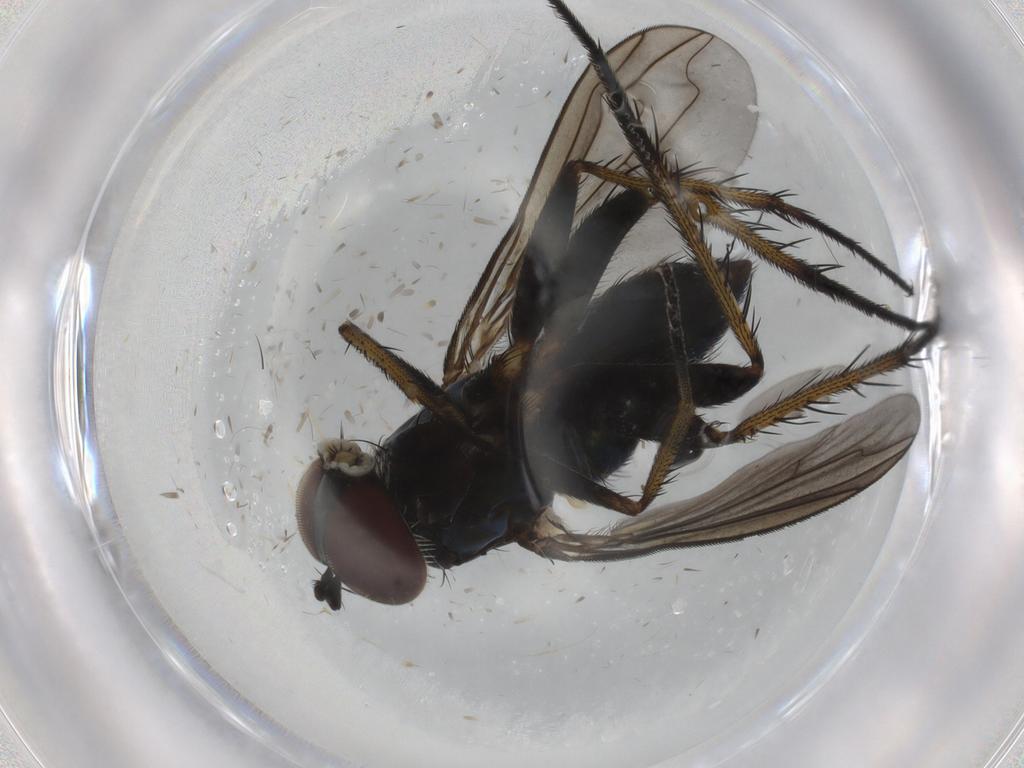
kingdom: Animalia
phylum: Arthropoda
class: Insecta
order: Diptera
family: Dolichopodidae
